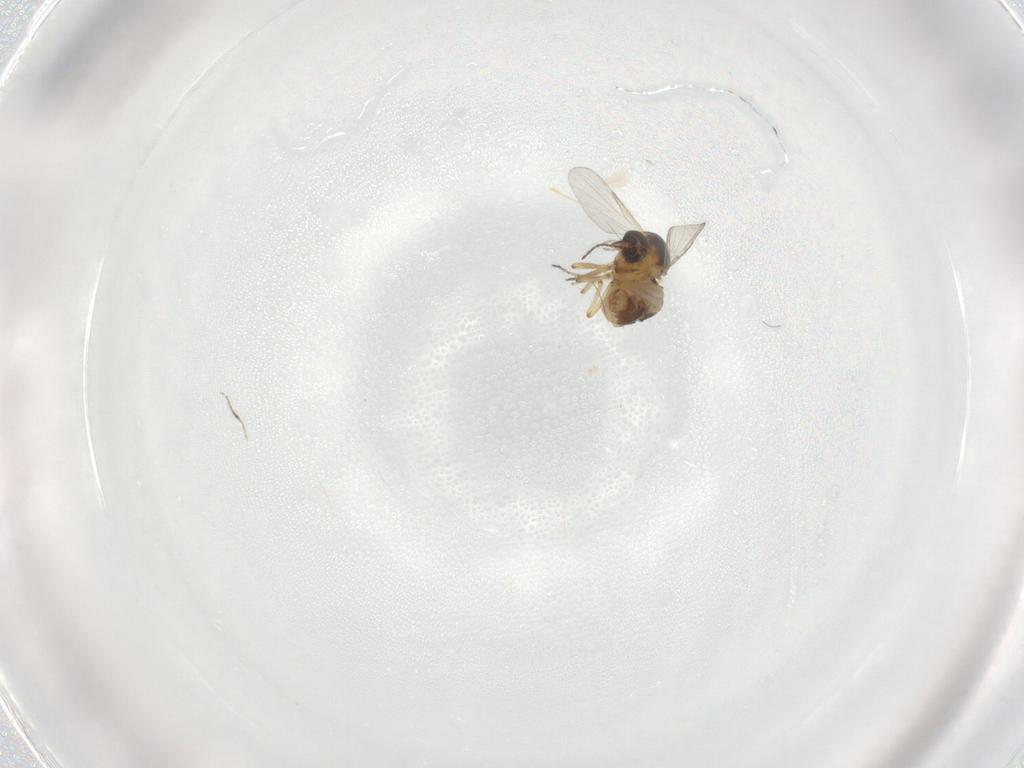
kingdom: Animalia
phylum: Arthropoda
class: Insecta
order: Diptera
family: Ceratopogonidae
